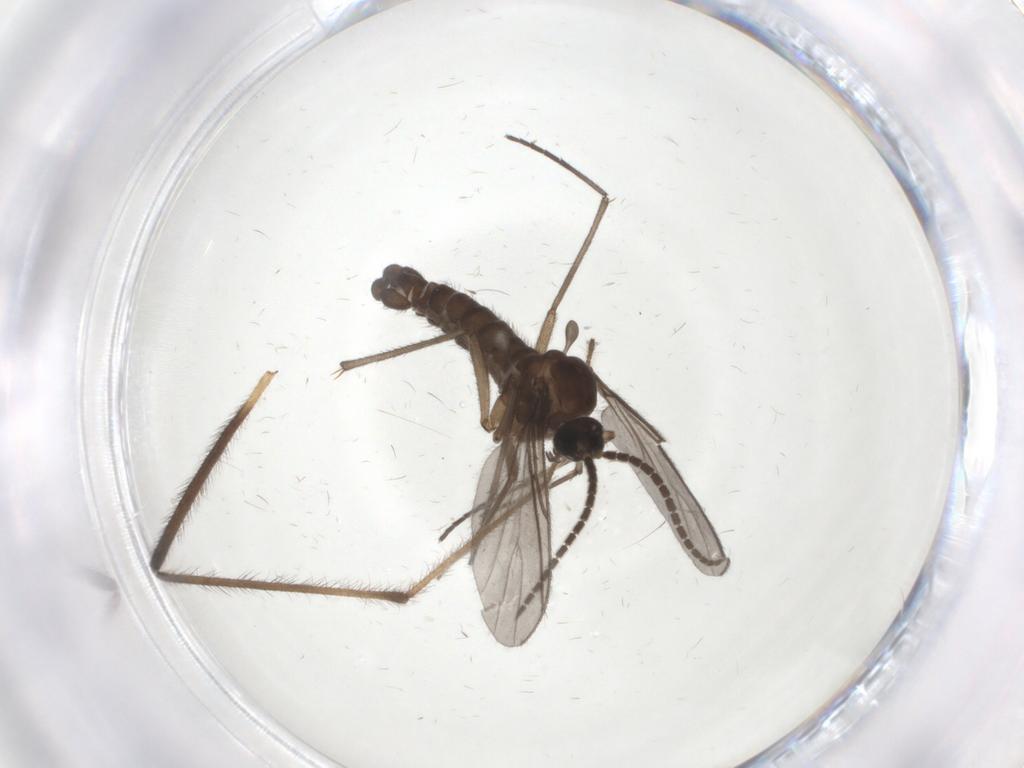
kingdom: Animalia
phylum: Arthropoda
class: Insecta
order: Diptera
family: Sciaridae
